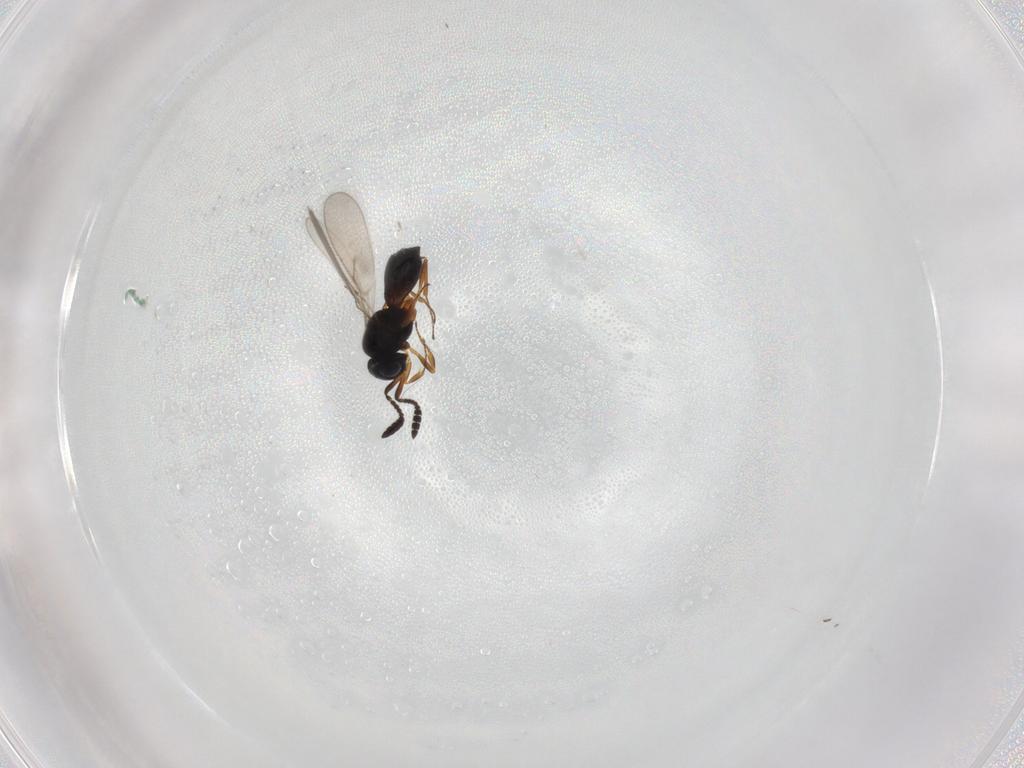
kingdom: Animalia
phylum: Arthropoda
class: Insecta
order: Hymenoptera
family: Scelionidae
